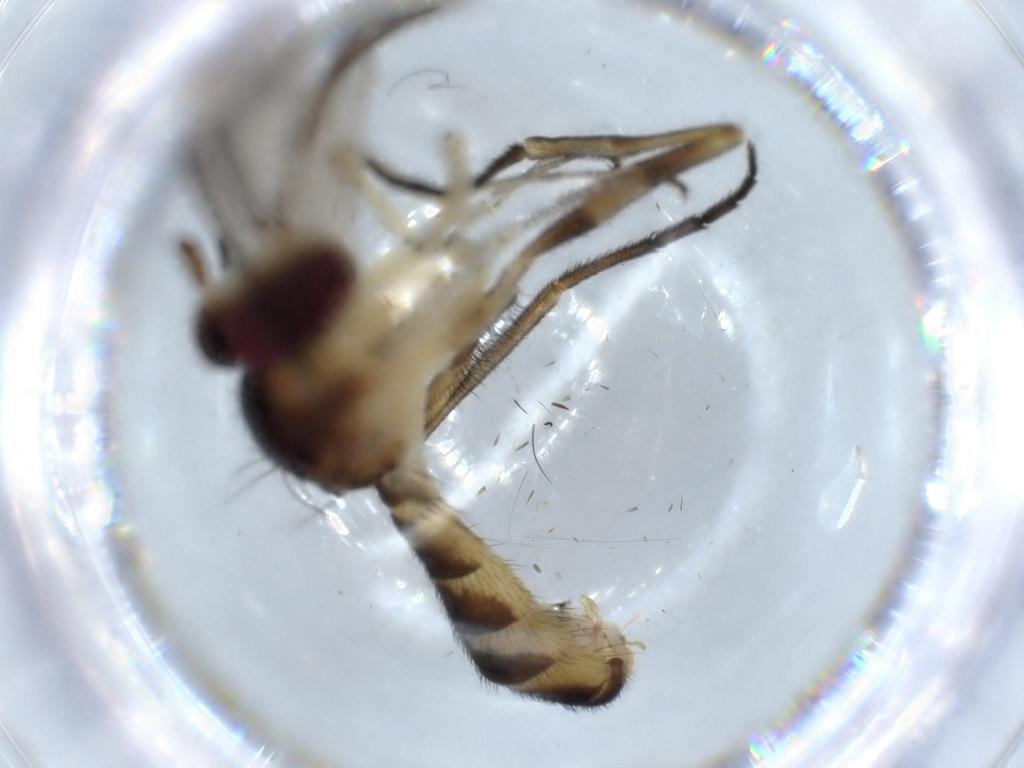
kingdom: Animalia
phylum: Arthropoda
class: Insecta
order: Diptera
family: Conopidae
